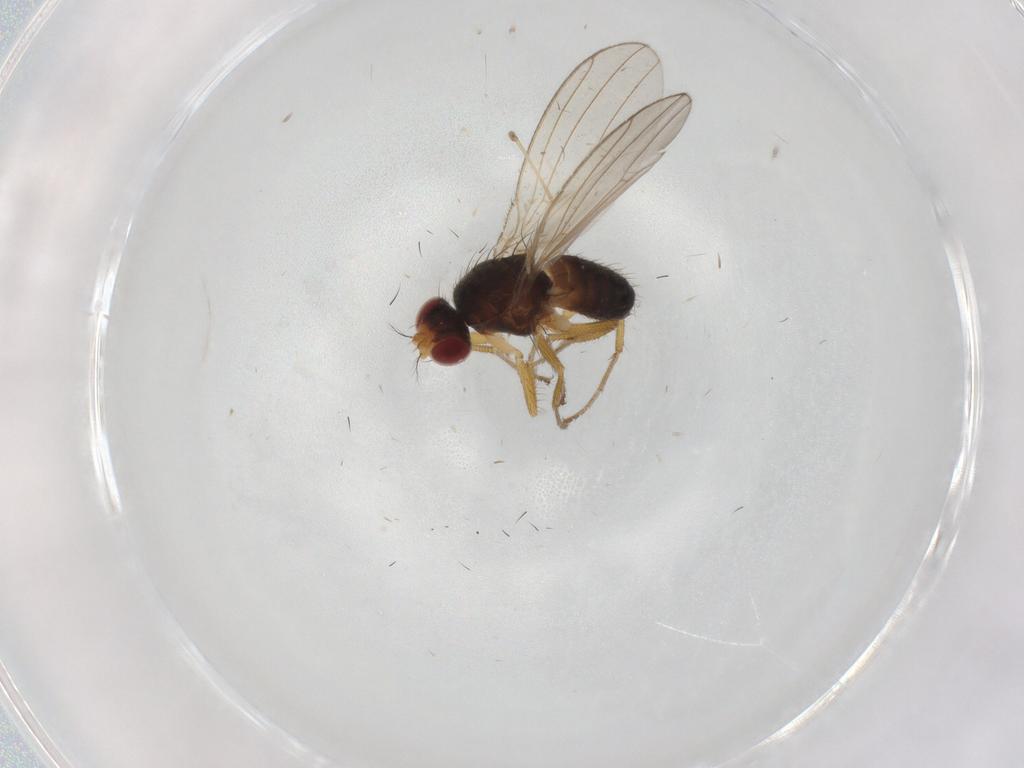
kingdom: Animalia
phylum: Arthropoda
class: Insecta
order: Diptera
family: Drosophilidae
